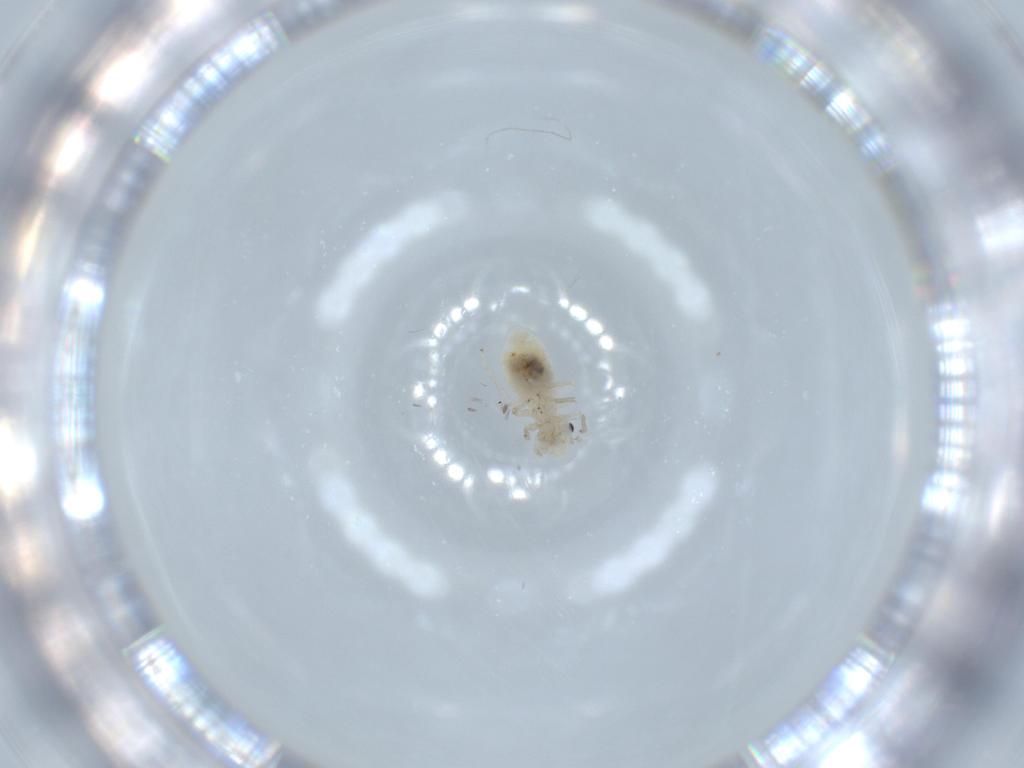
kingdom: Animalia
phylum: Arthropoda
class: Insecta
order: Psocodea
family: Caeciliusidae
